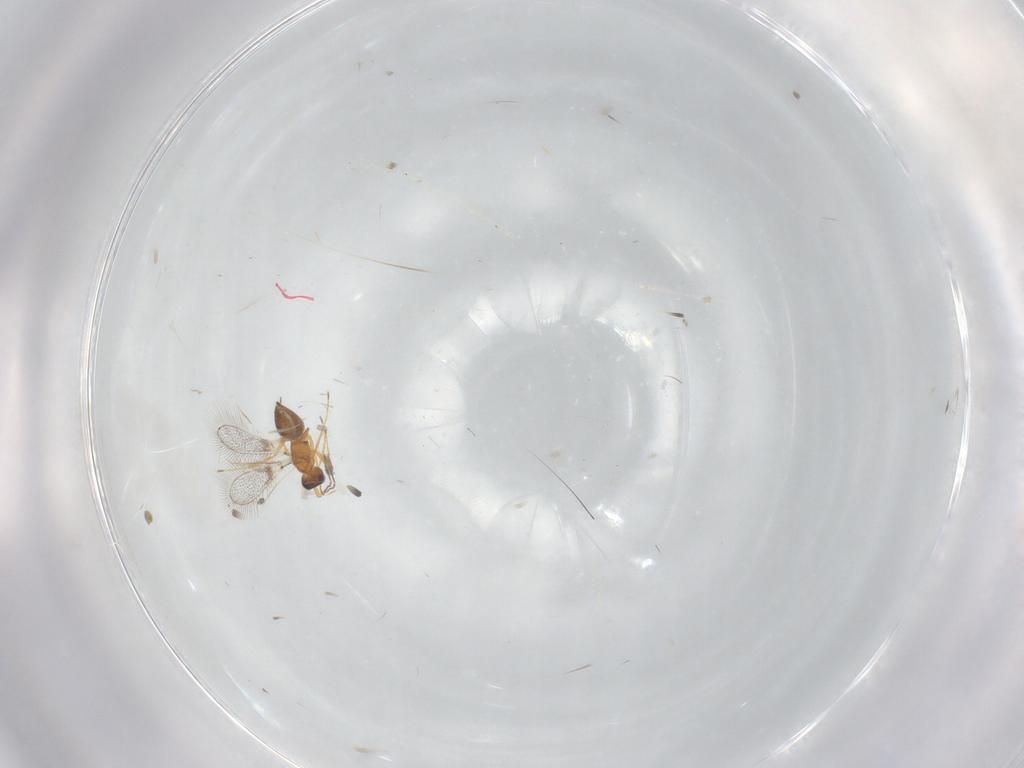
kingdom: Animalia
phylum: Arthropoda
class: Insecta
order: Hymenoptera
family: Mymaridae
